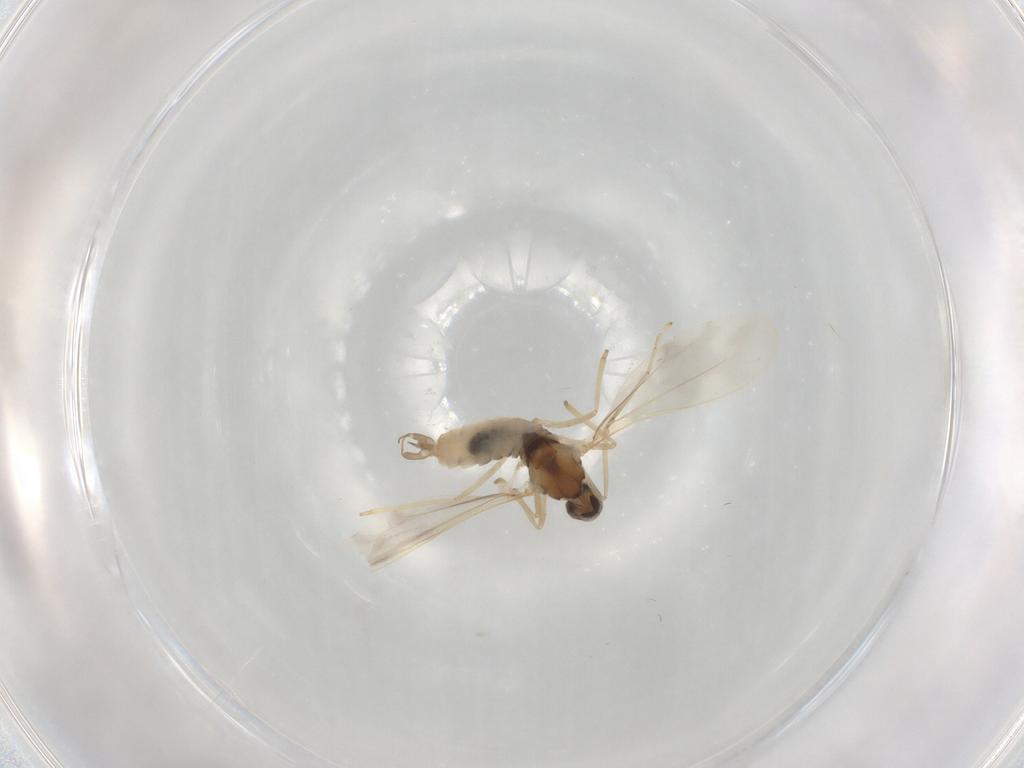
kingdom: Animalia
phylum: Arthropoda
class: Insecta
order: Diptera
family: Cecidomyiidae
